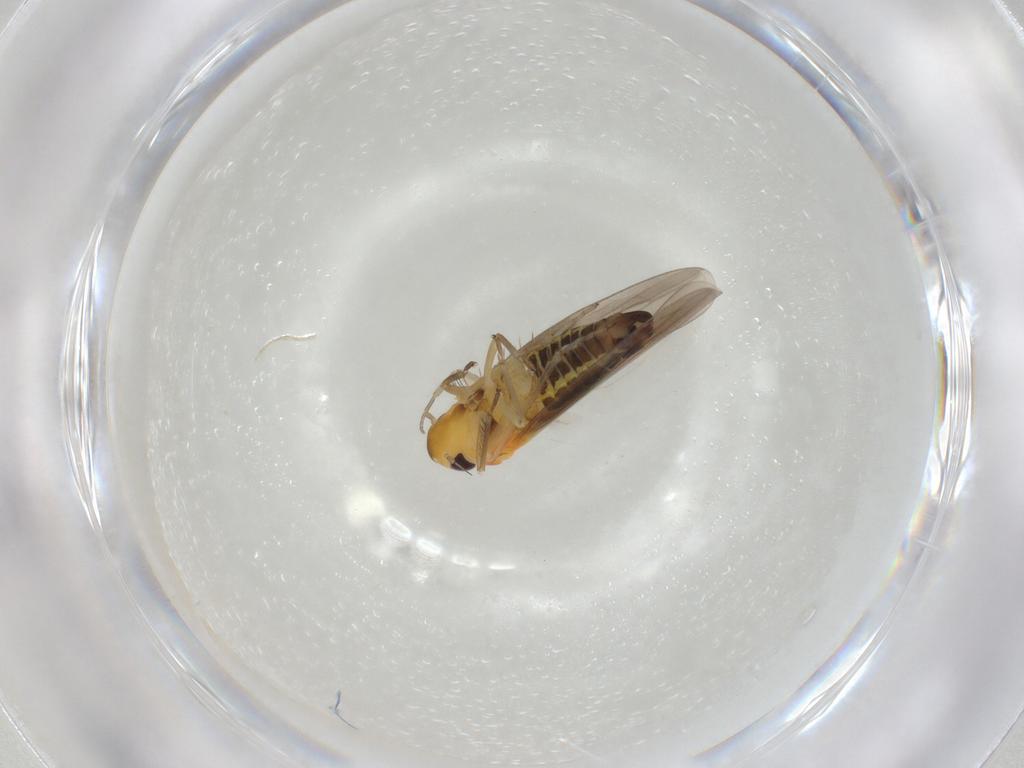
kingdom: Animalia
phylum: Arthropoda
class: Insecta
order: Hemiptera
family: Cicadellidae
